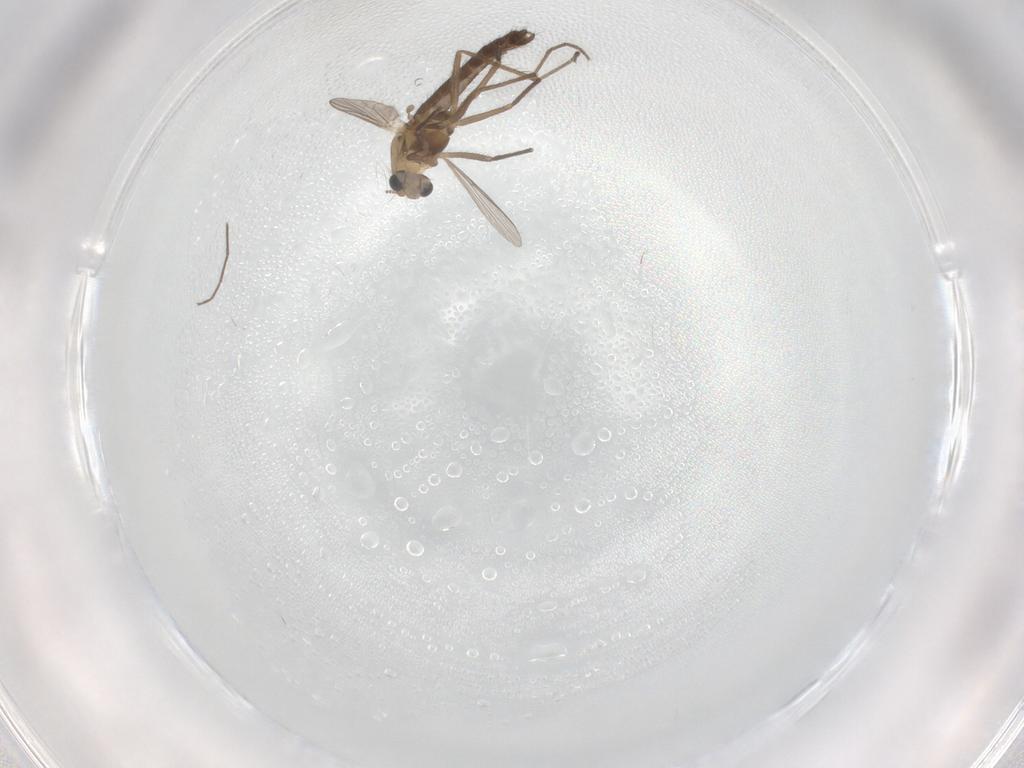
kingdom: Animalia
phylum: Arthropoda
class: Insecta
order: Diptera
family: Chironomidae
